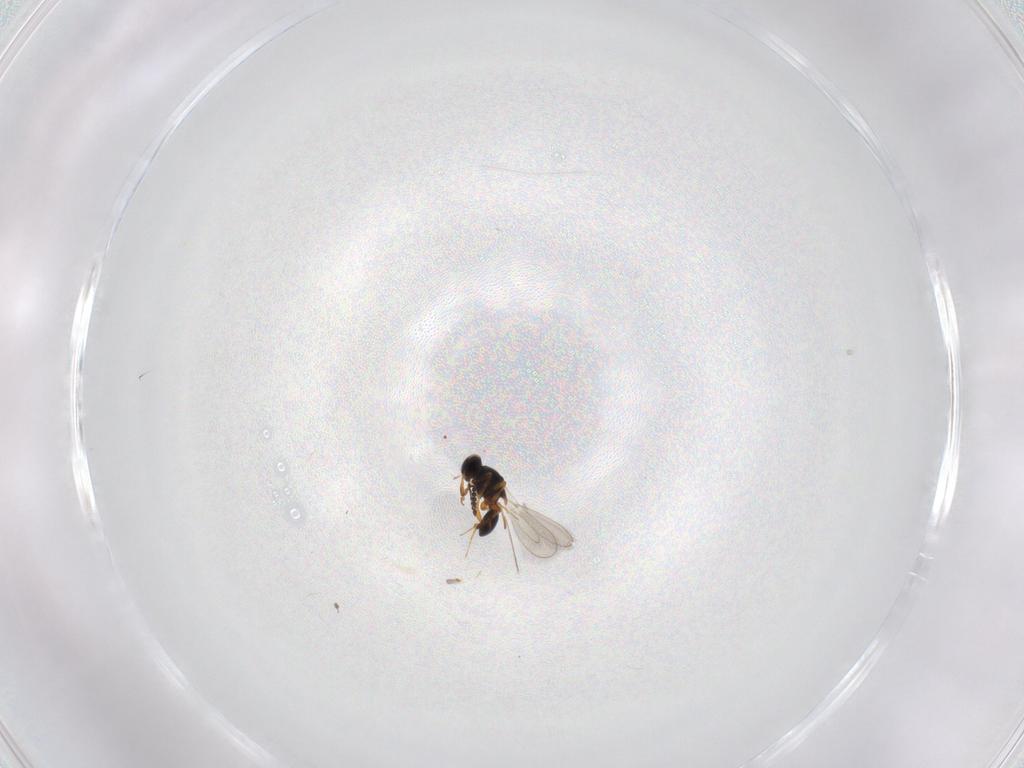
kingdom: Animalia
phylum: Arthropoda
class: Insecta
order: Hymenoptera
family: Platygastridae
